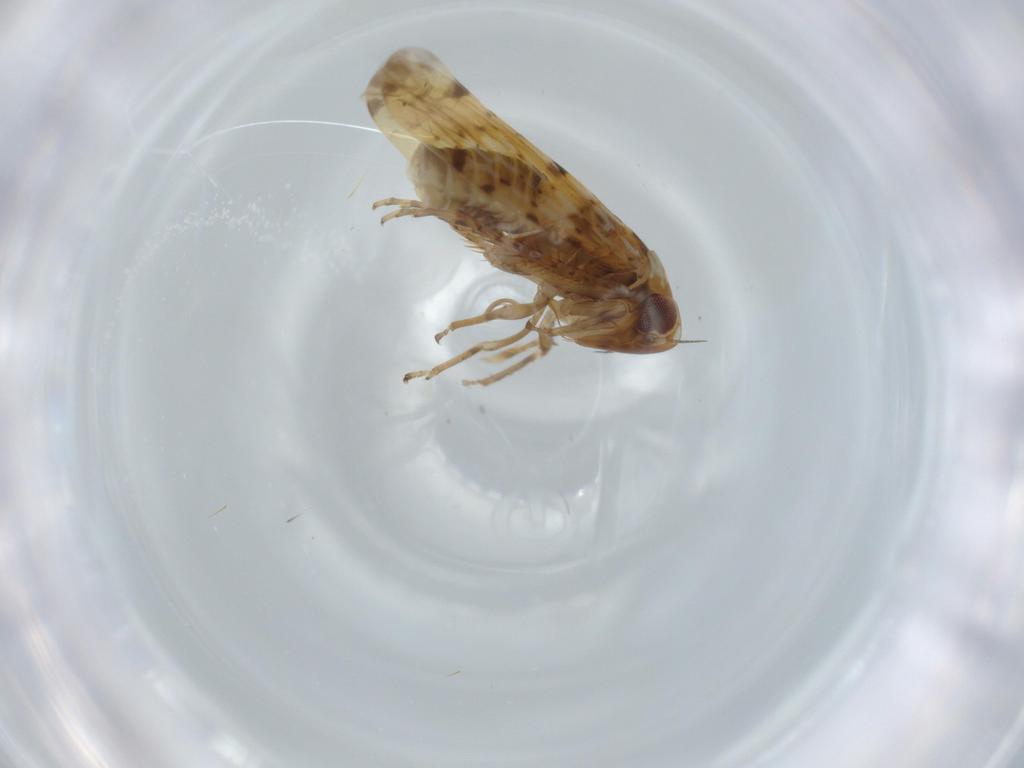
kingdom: Animalia
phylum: Arthropoda
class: Insecta
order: Hemiptera
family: Cicadellidae
